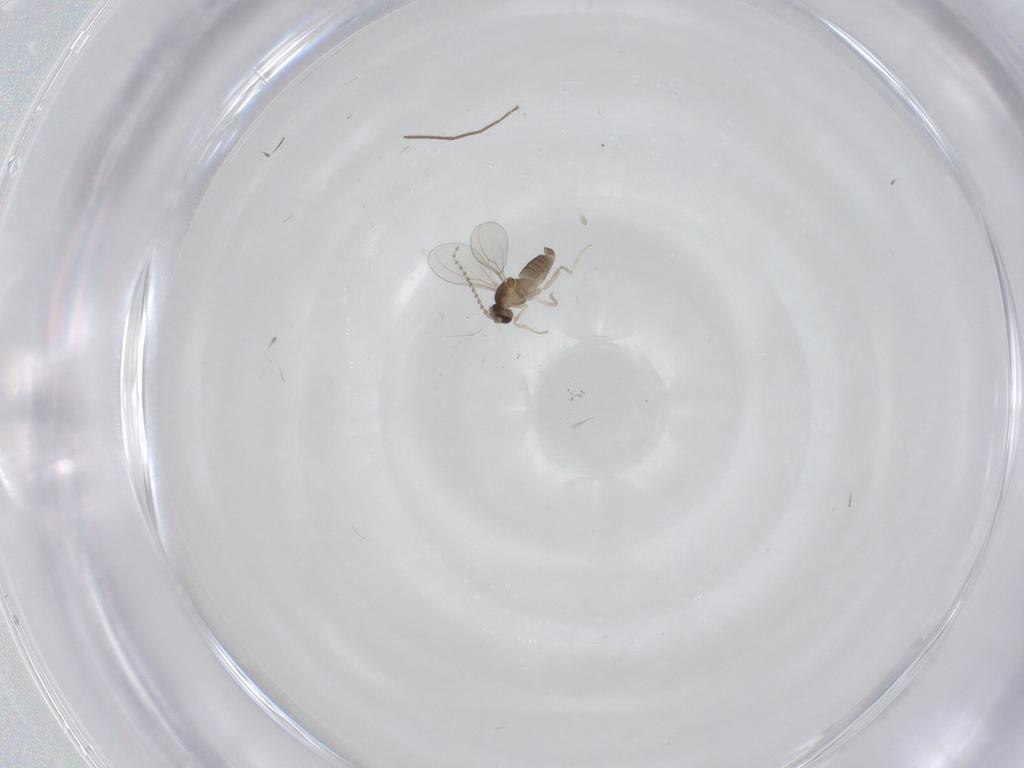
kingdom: Animalia
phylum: Arthropoda
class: Insecta
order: Diptera
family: Cecidomyiidae
